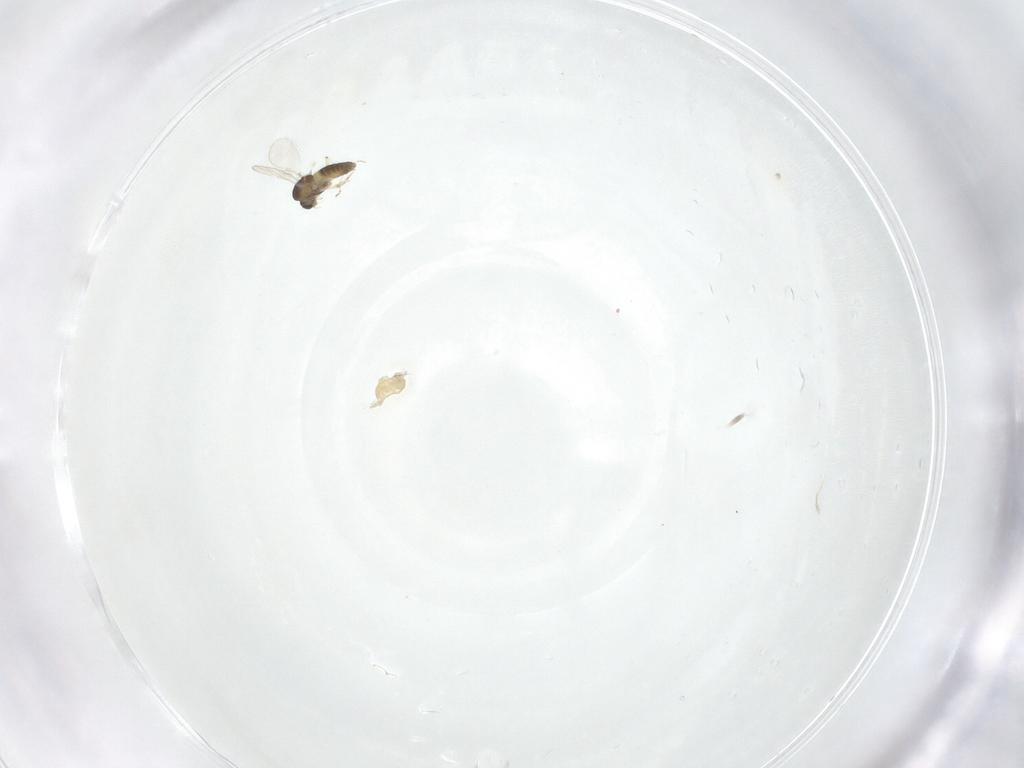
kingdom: Animalia
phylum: Arthropoda
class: Insecta
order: Diptera
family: Chironomidae
